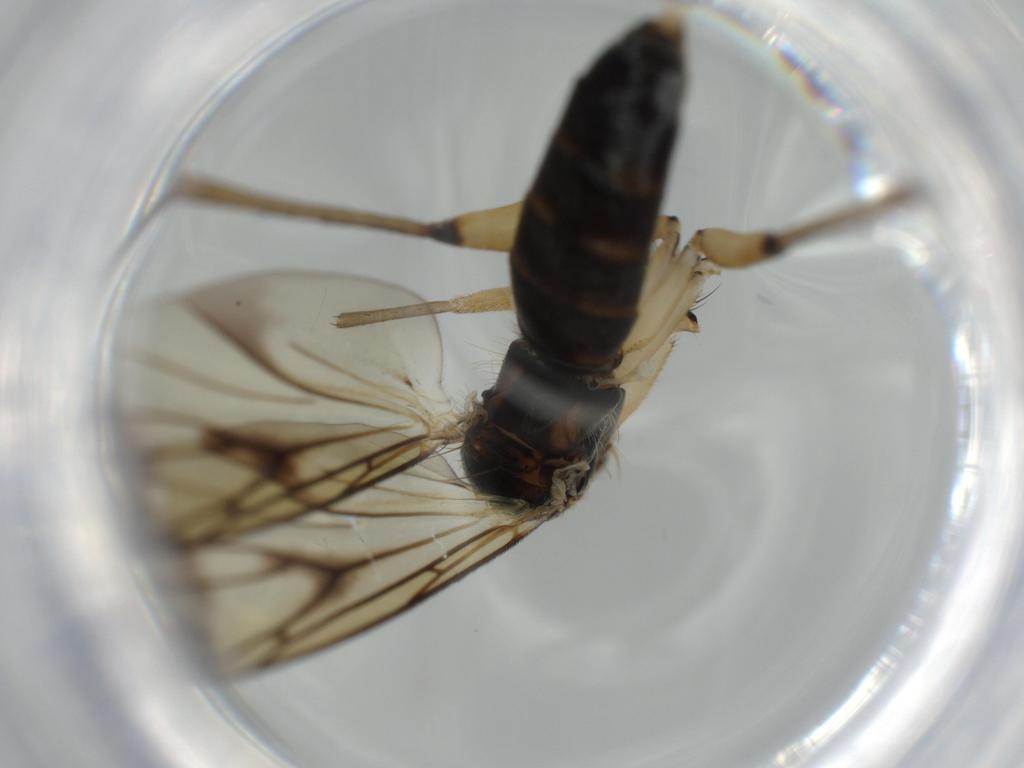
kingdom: Animalia
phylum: Arthropoda
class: Insecta
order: Diptera
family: Mycetophilidae
